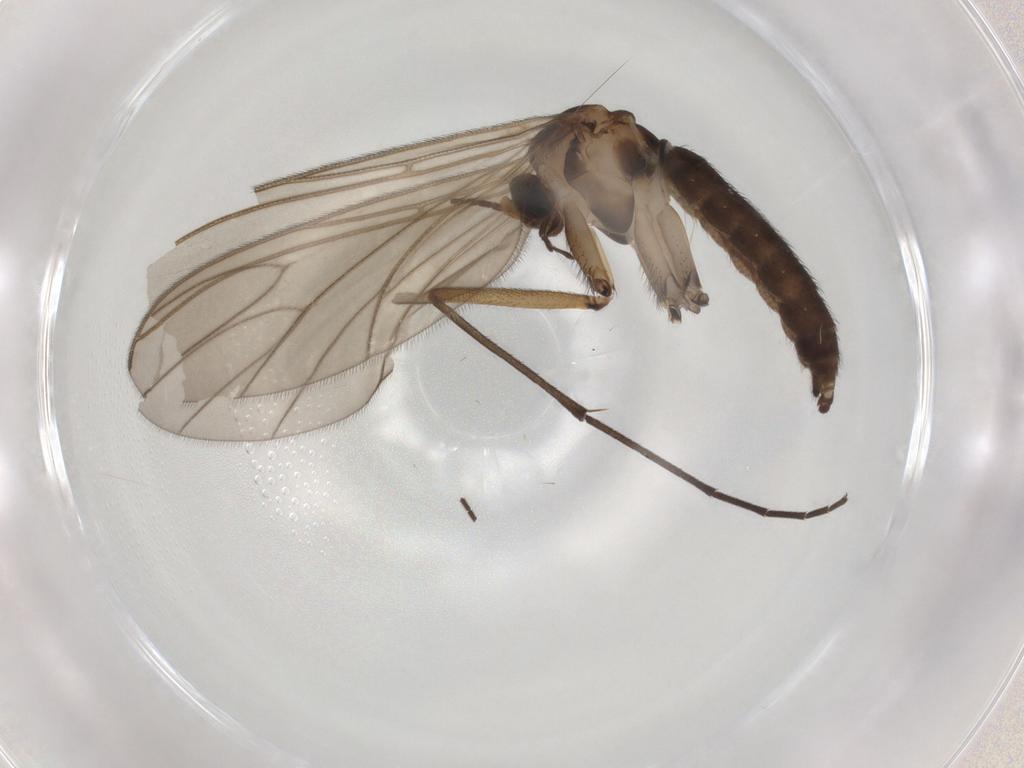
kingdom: Animalia
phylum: Arthropoda
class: Insecta
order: Diptera
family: Sciaridae
